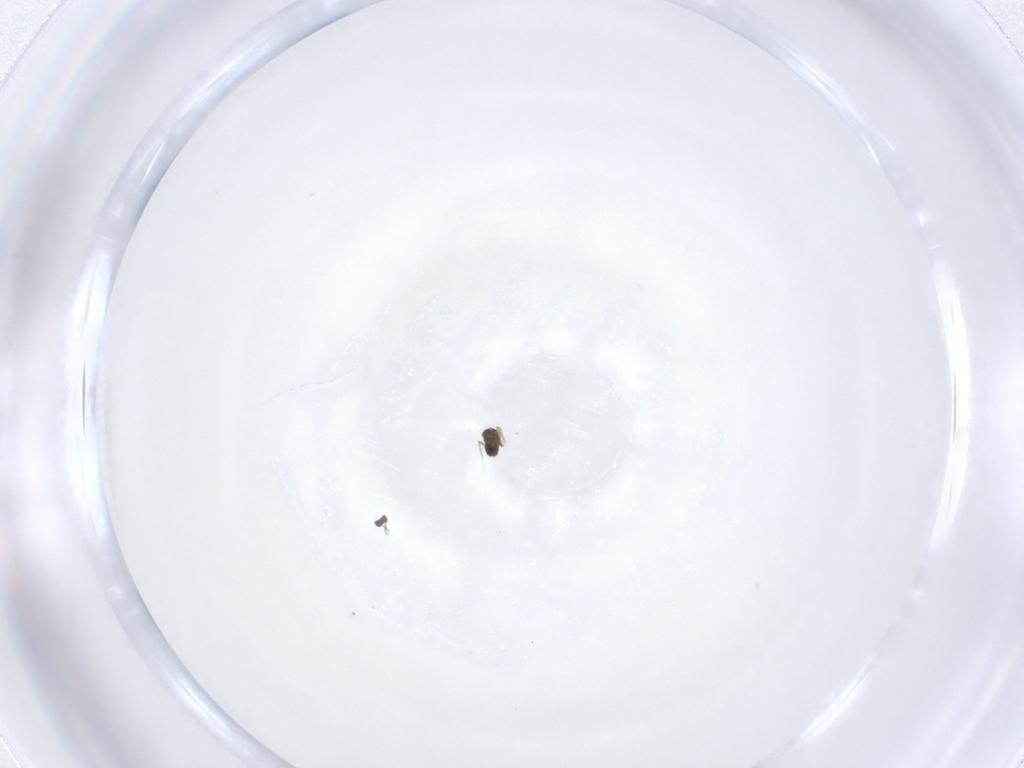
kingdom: Animalia
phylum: Arthropoda
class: Insecta
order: Hymenoptera
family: Mymaridae
